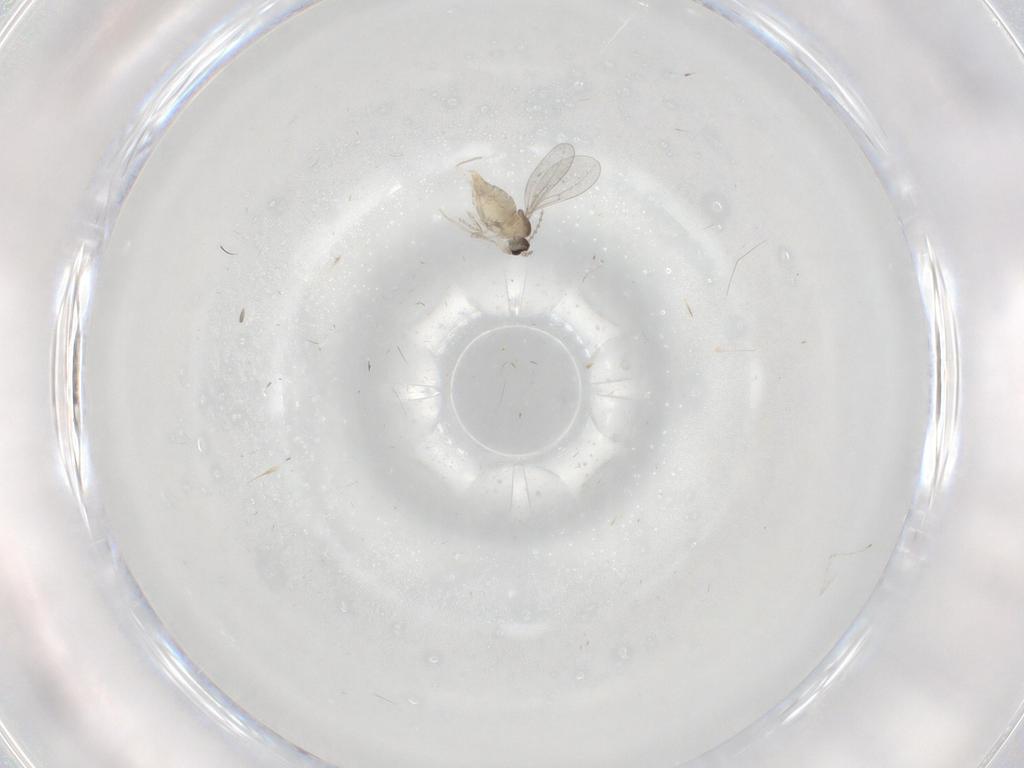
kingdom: Animalia
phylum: Arthropoda
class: Insecta
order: Diptera
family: Cecidomyiidae
